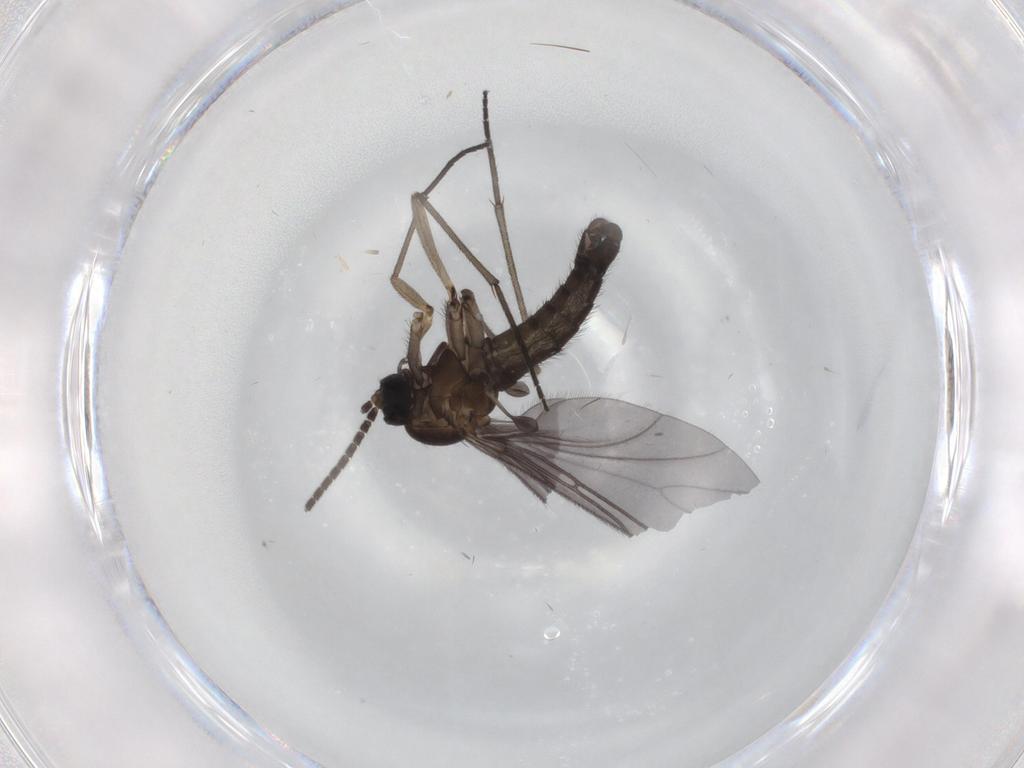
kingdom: Animalia
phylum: Arthropoda
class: Insecta
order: Diptera
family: Sciaridae
